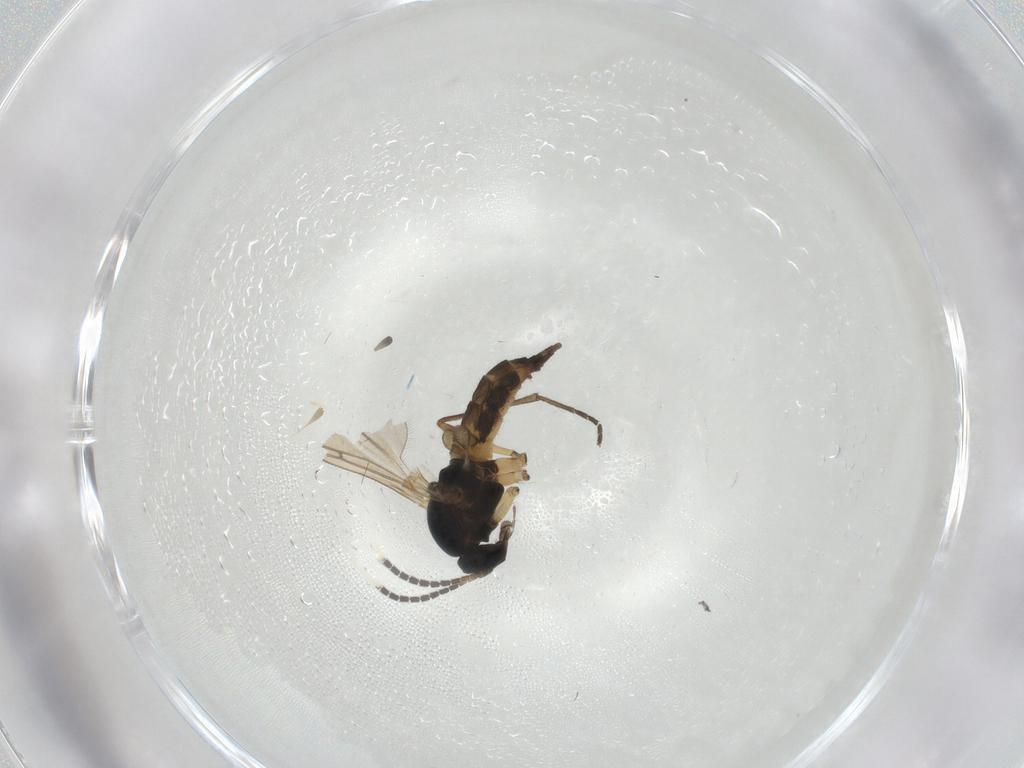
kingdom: Animalia
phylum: Arthropoda
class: Insecta
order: Diptera
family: Sciaridae
